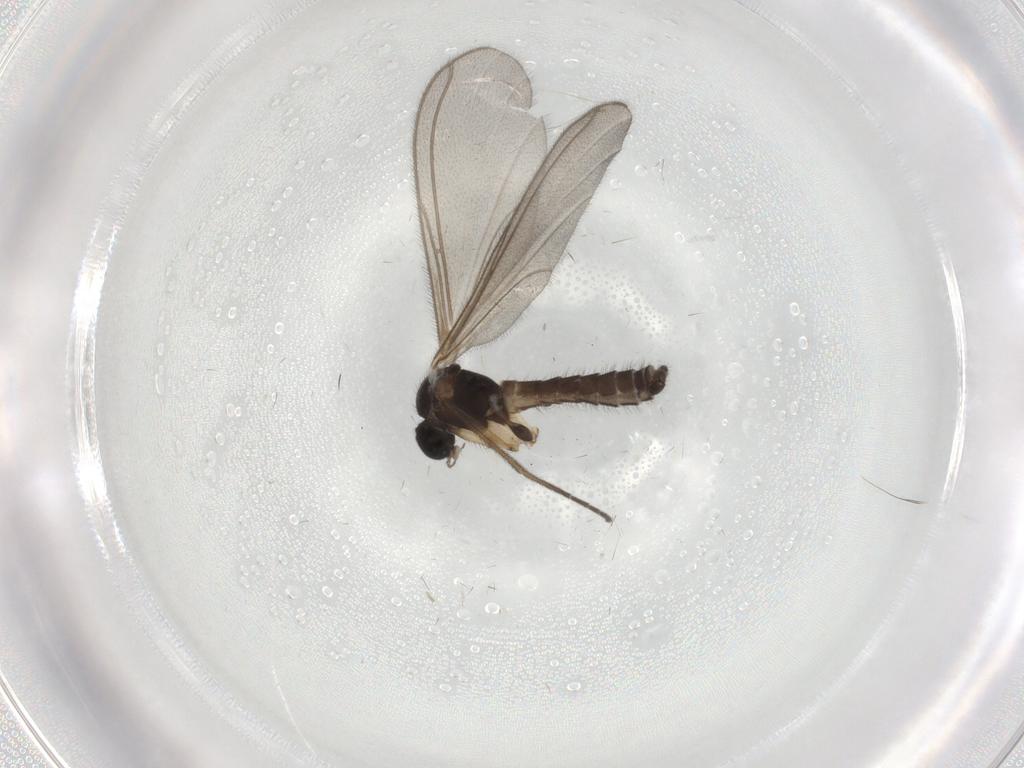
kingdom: Animalia
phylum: Arthropoda
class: Insecta
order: Diptera
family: Mycetophilidae
